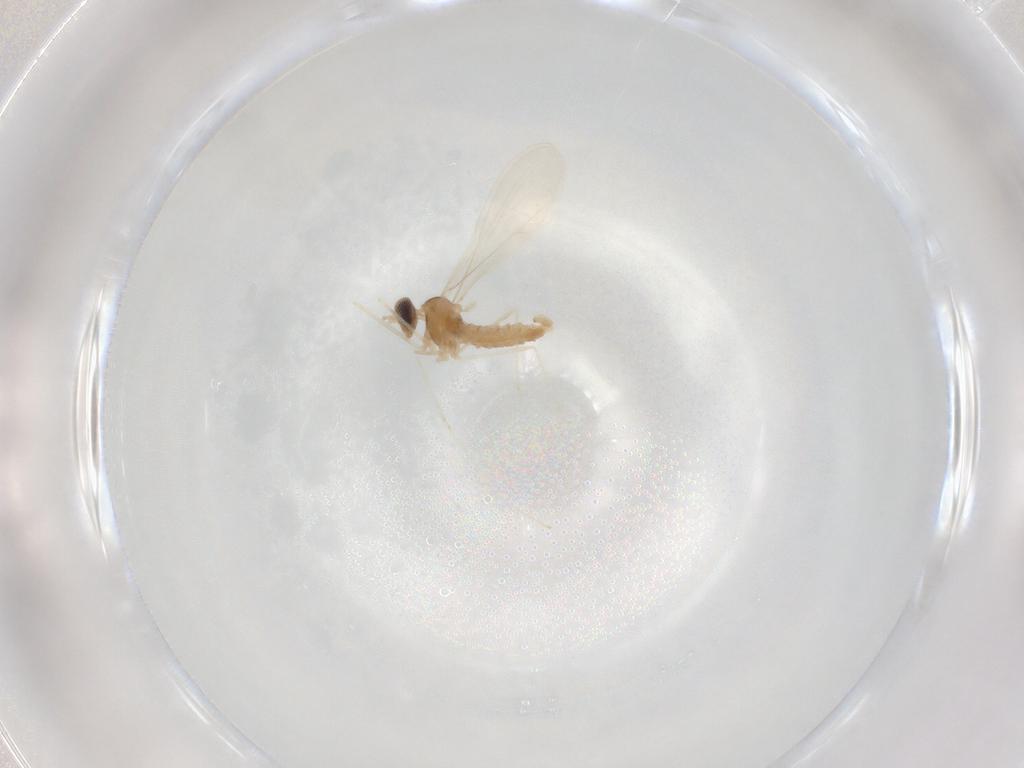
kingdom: Animalia
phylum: Arthropoda
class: Insecta
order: Diptera
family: Cecidomyiidae
